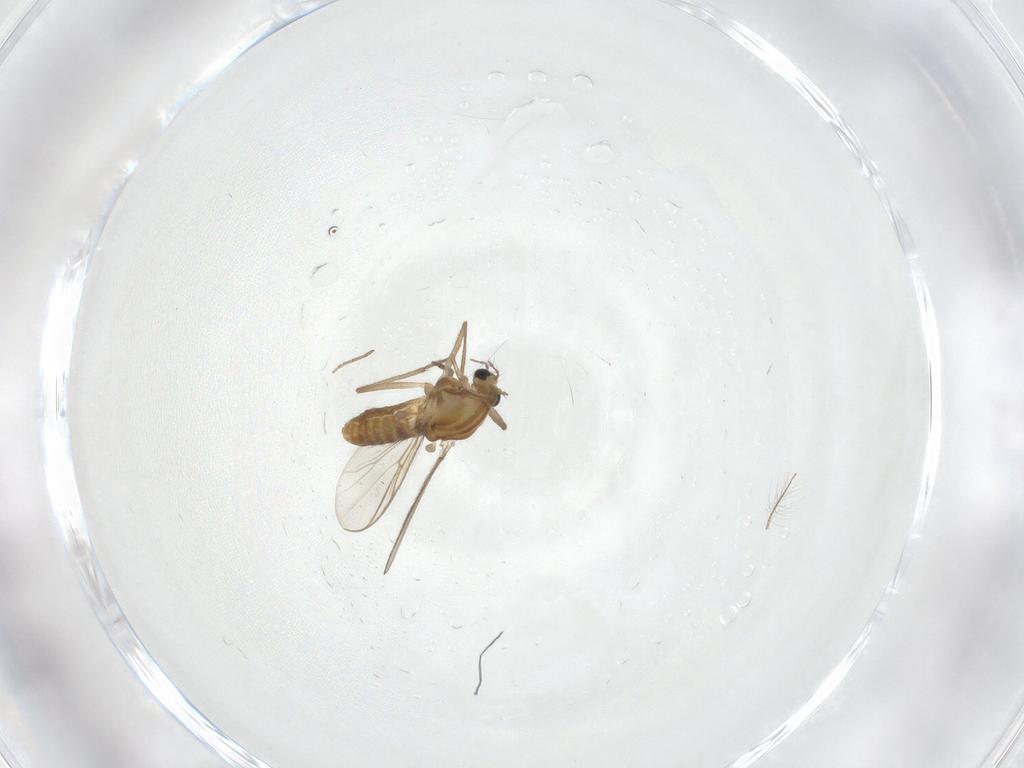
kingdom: Animalia
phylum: Arthropoda
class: Insecta
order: Diptera
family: Chironomidae
